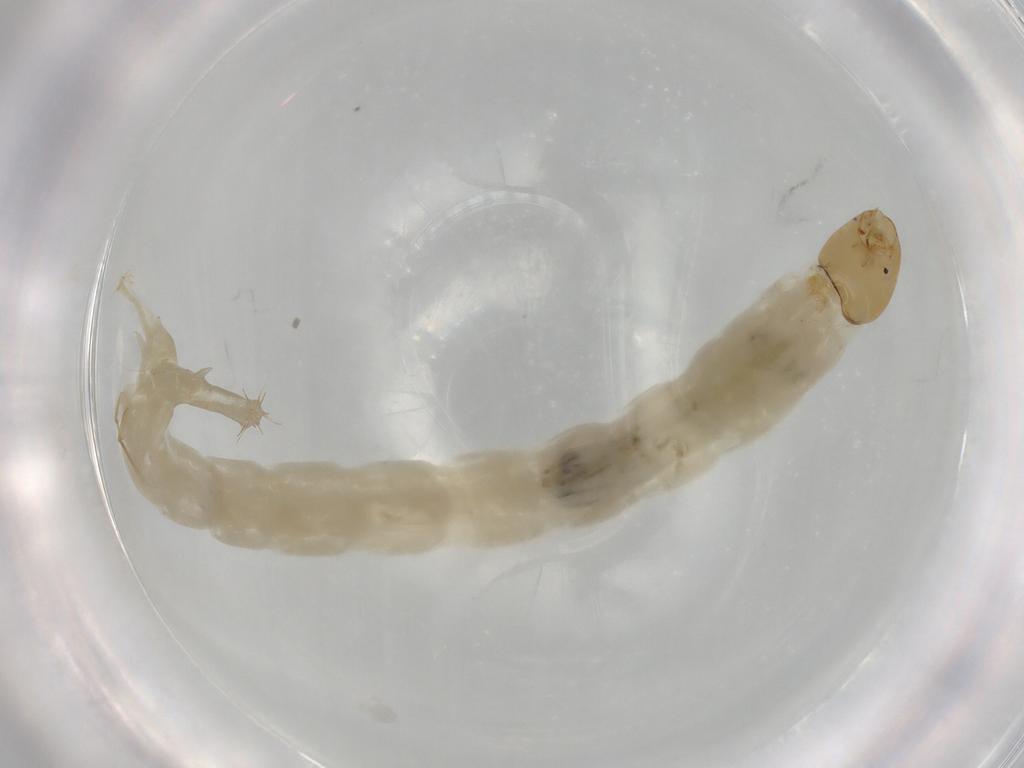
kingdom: Animalia
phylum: Arthropoda
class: Insecta
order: Diptera
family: Chironomidae
